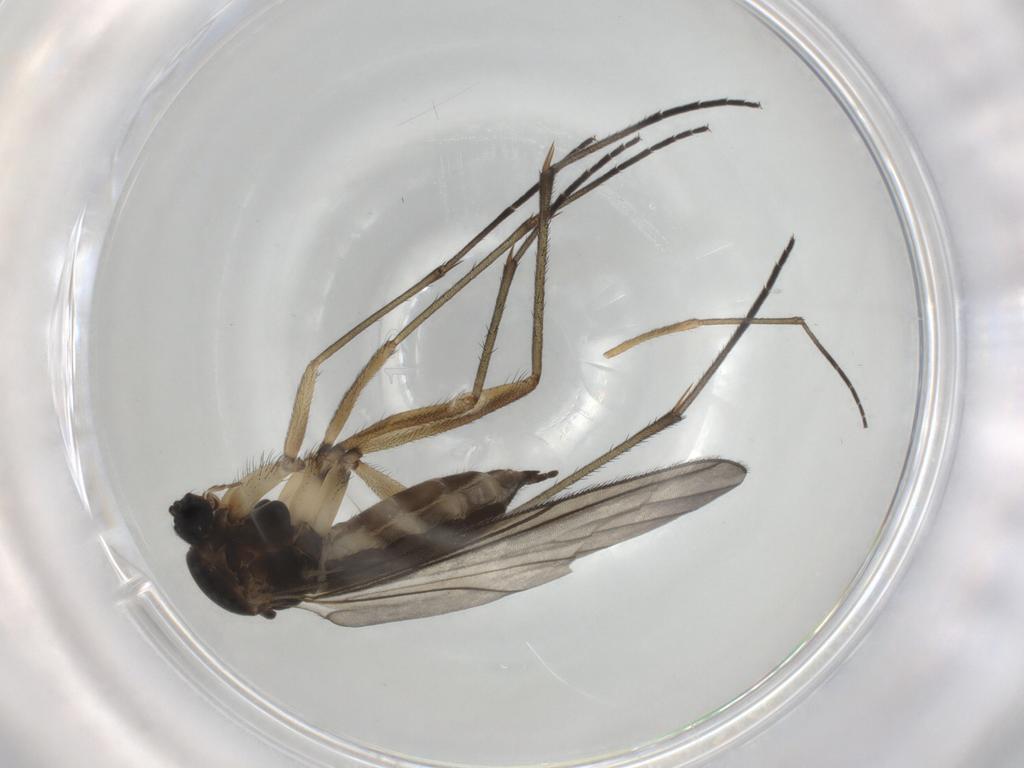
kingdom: Animalia
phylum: Arthropoda
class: Insecta
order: Diptera
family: Sciaridae
